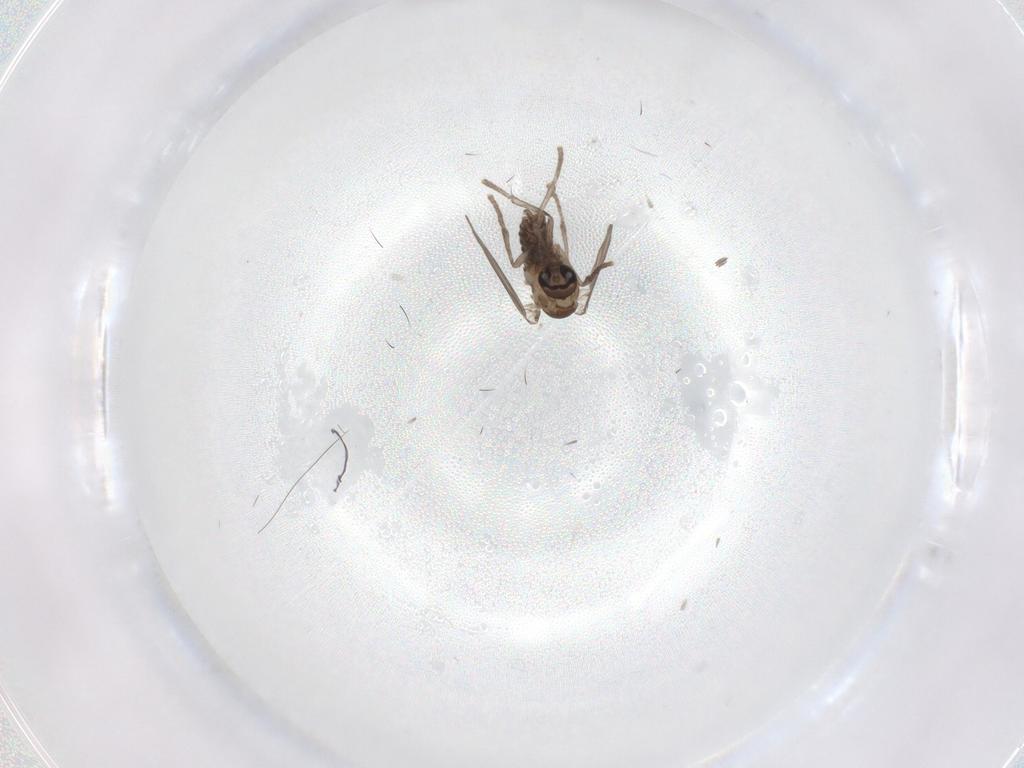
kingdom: Animalia
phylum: Arthropoda
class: Insecta
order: Diptera
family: Psychodidae
